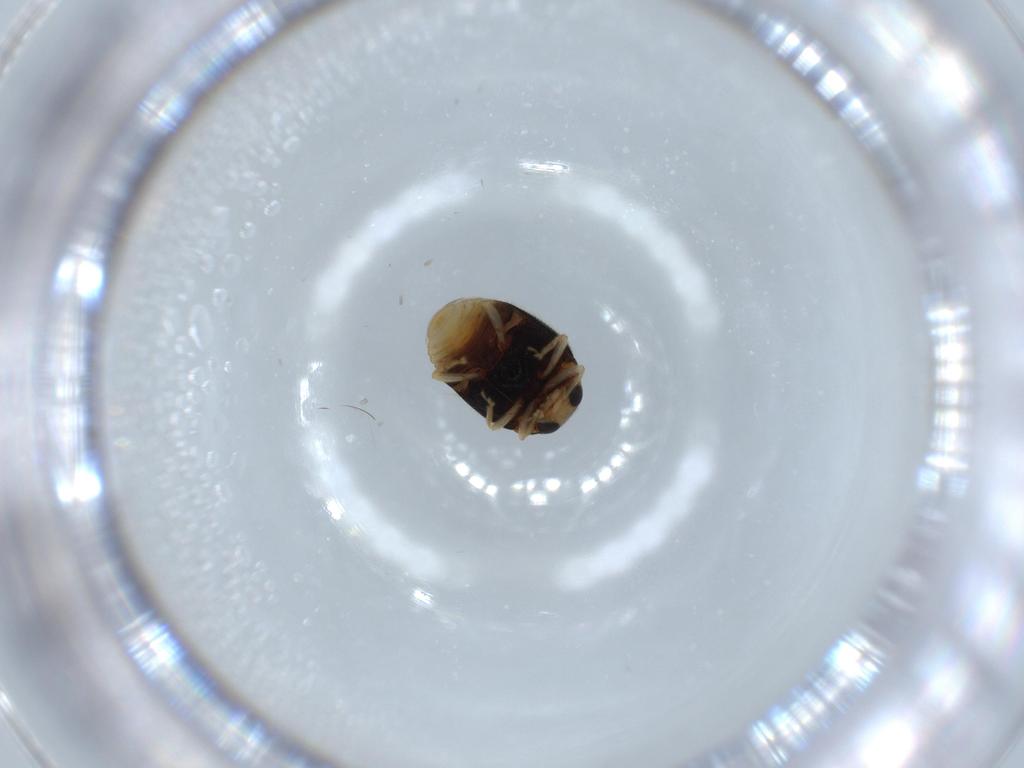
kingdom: Animalia
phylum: Arthropoda
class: Insecta
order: Coleoptera
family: Coccinellidae
